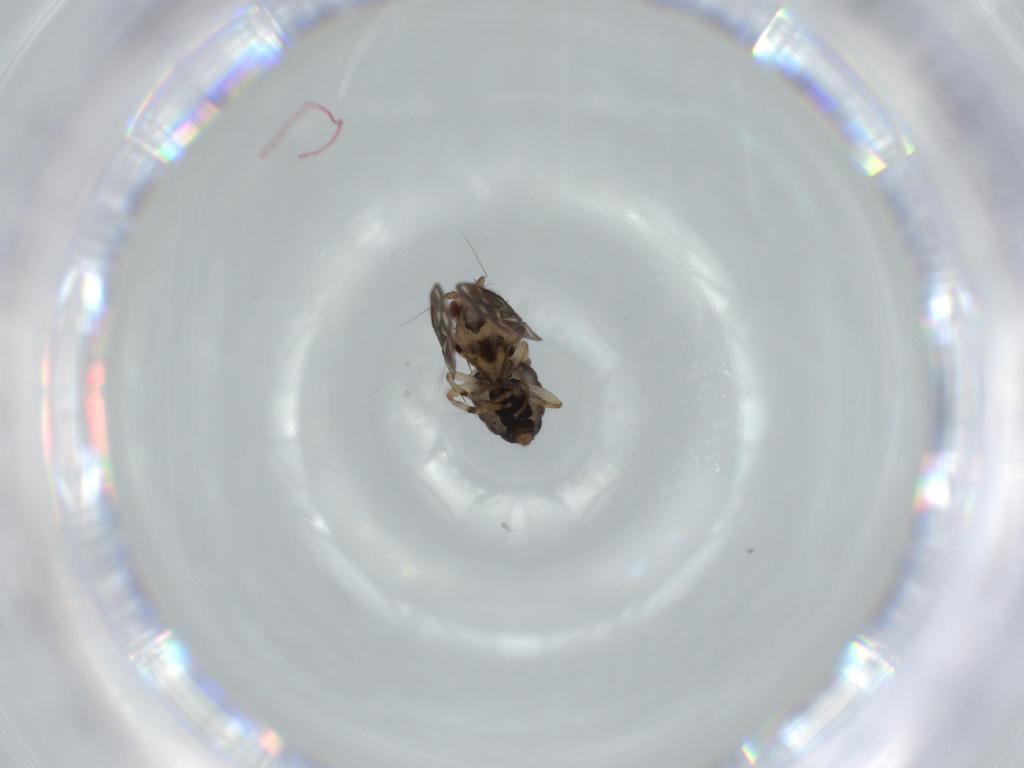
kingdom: Animalia
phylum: Arthropoda
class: Insecta
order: Diptera
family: Sphaeroceridae
